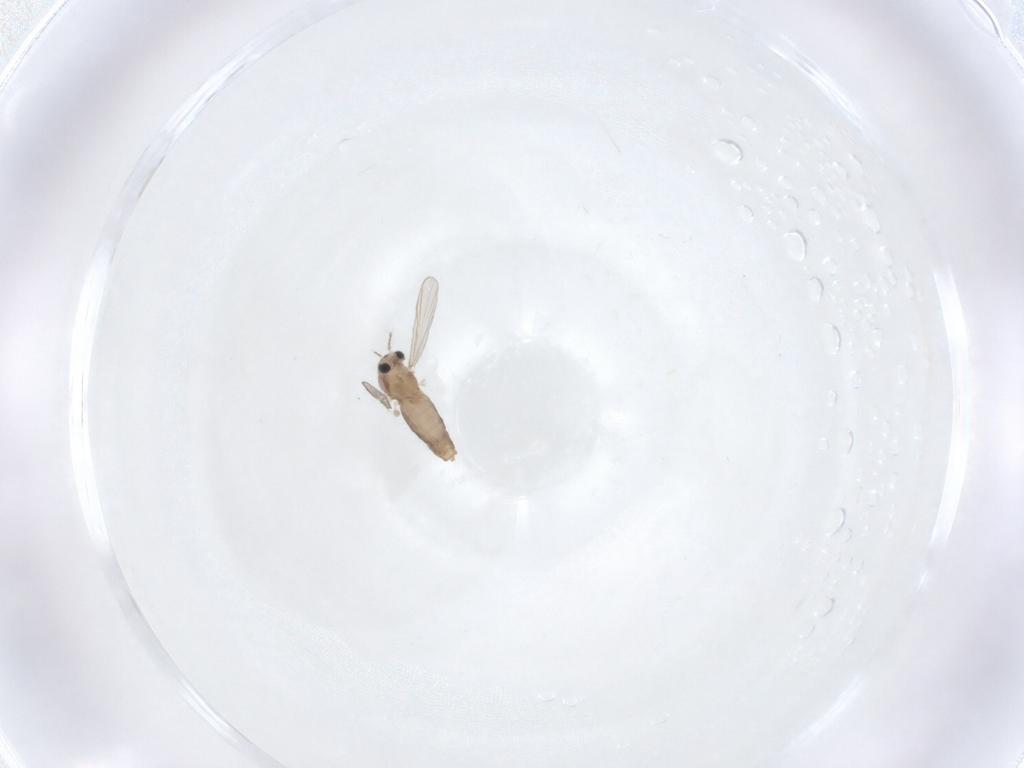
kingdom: Animalia
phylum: Arthropoda
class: Insecta
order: Diptera
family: Chironomidae
